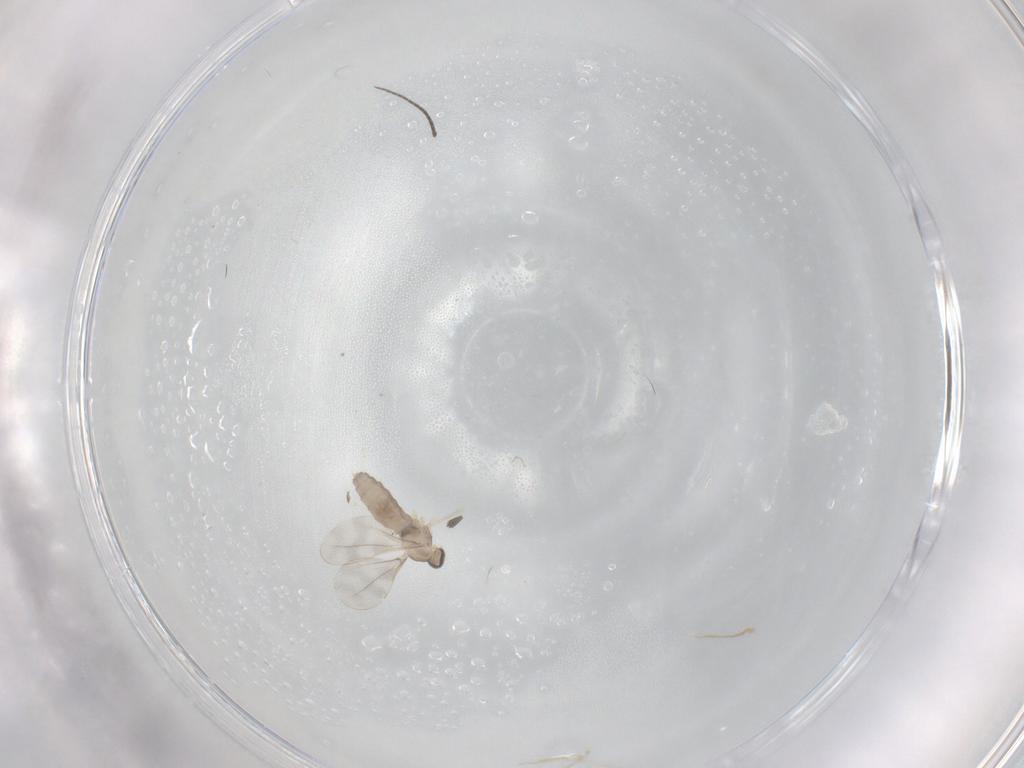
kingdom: Animalia
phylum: Arthropoda
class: Insecta
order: Diptera
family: Cecidomyiidae
